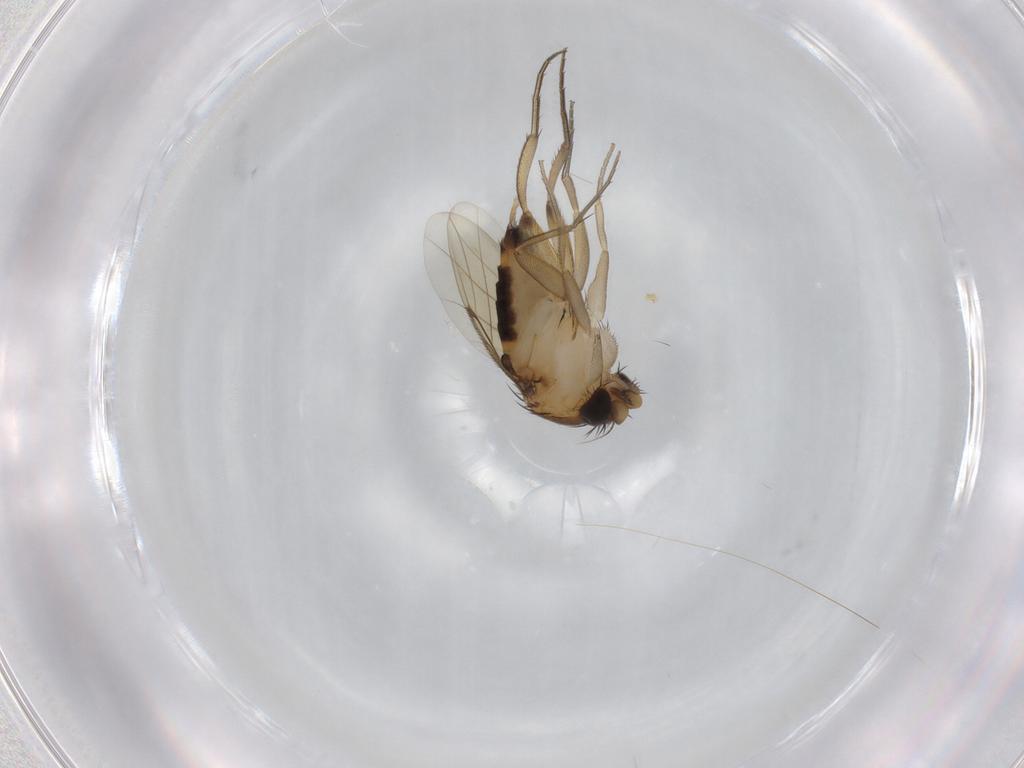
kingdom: Animalia
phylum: Arthropoda
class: Insecta
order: Diptera
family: Phoridae
